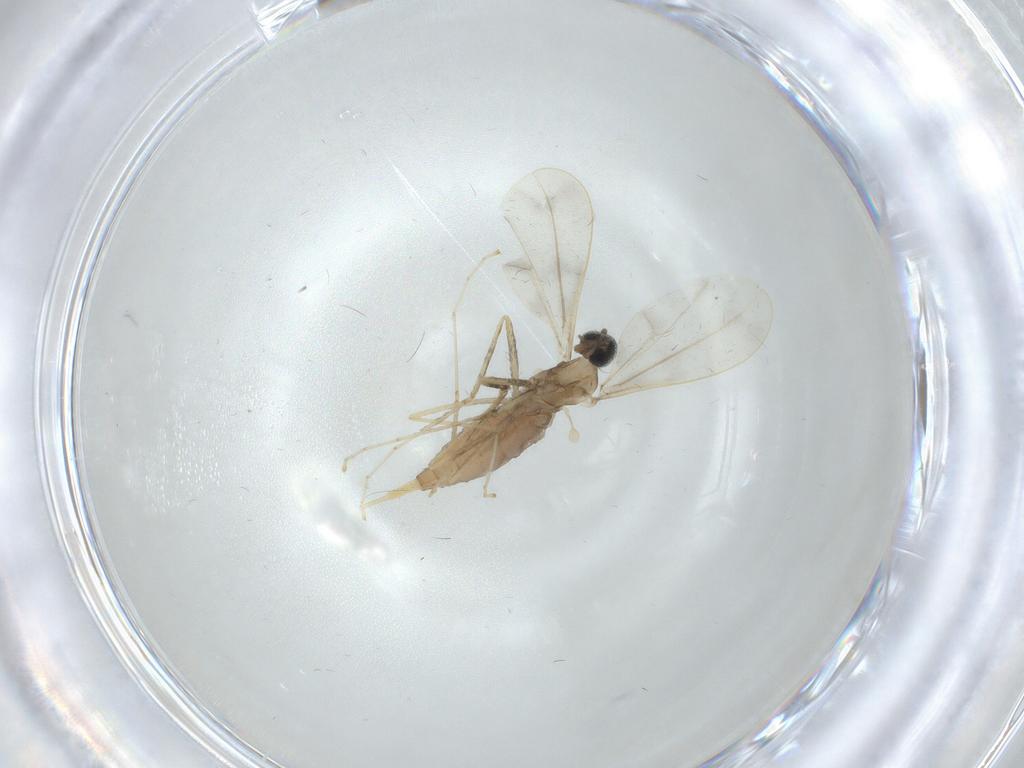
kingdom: Animalia
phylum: Arthropoda
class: Insecta
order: Diptera
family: Cecidomyiidae
